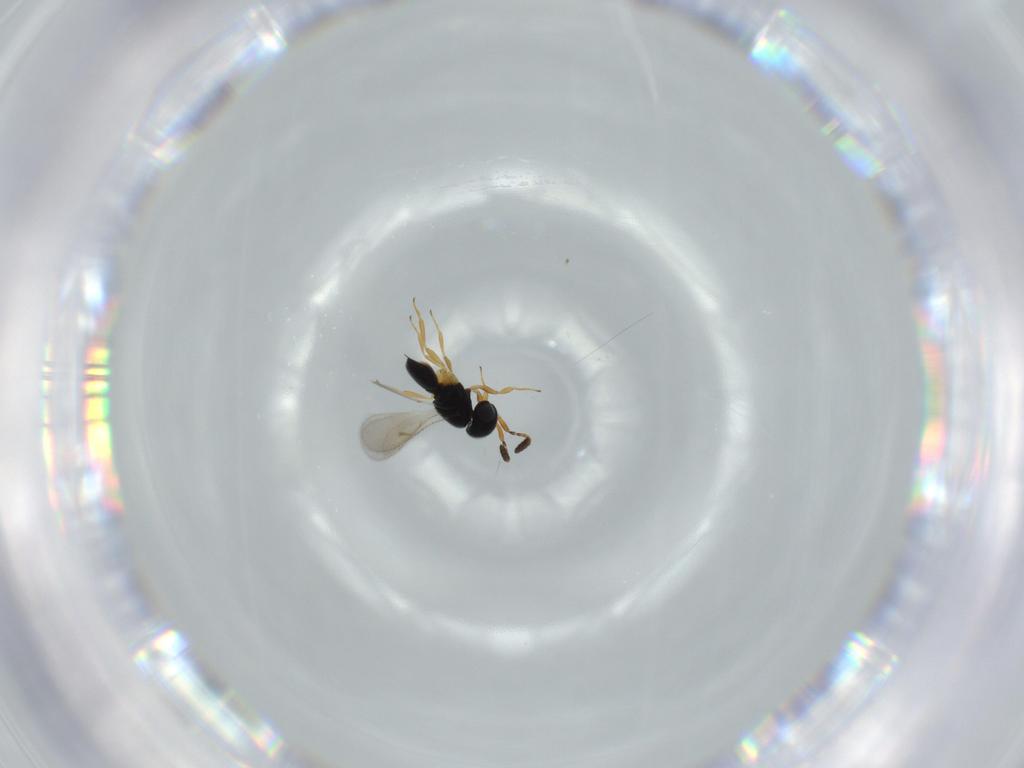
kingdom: Animalia
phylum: Arthropoda
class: Insecta
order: Hymenoptera
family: Scelionidae
